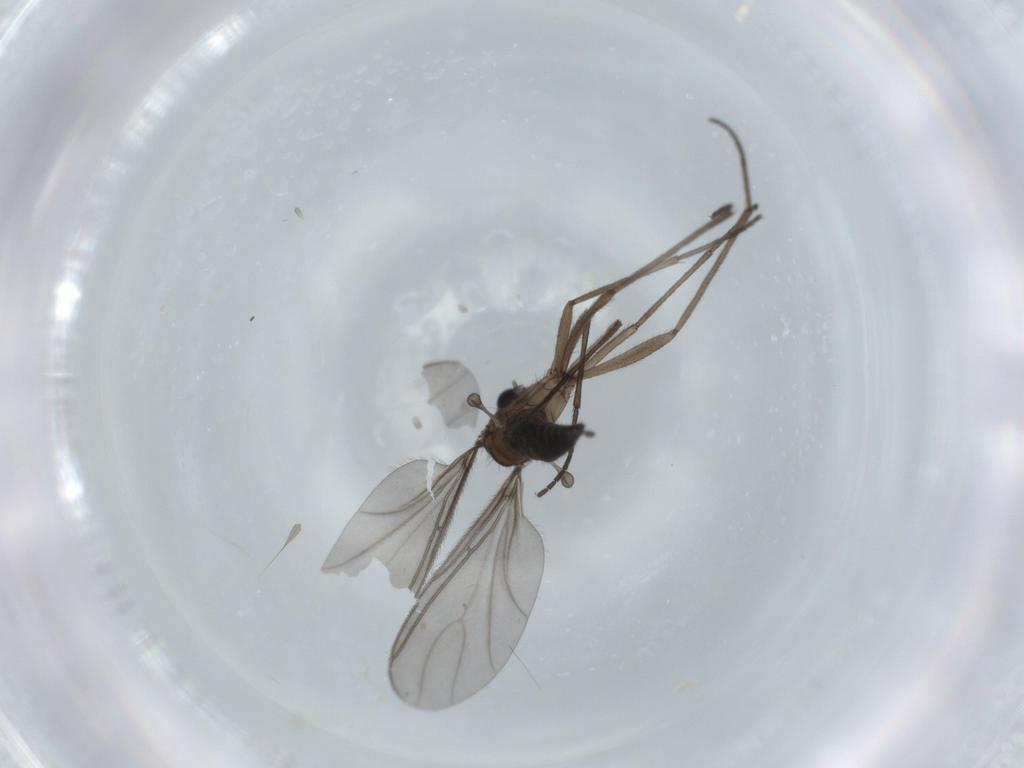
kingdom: Animalia
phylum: Arthropoda
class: Insecta
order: Diptera
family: Sciaridae
